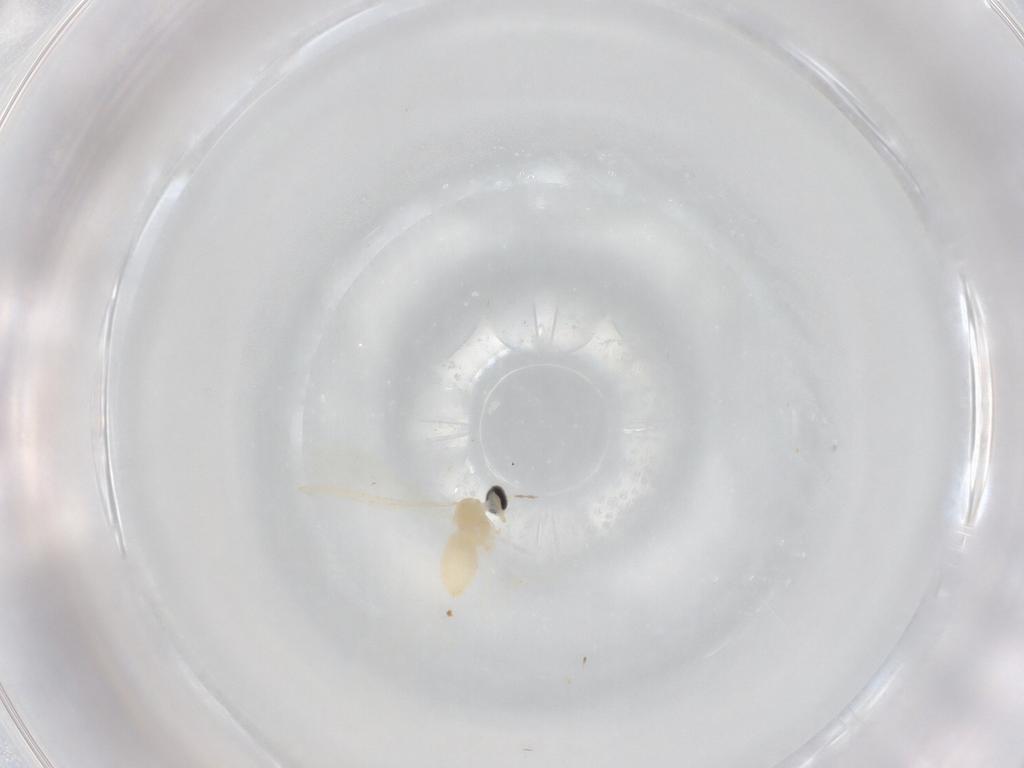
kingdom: Animalia
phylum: Arthropoda
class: Insecta
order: Diptera
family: Cecidomyiidae
